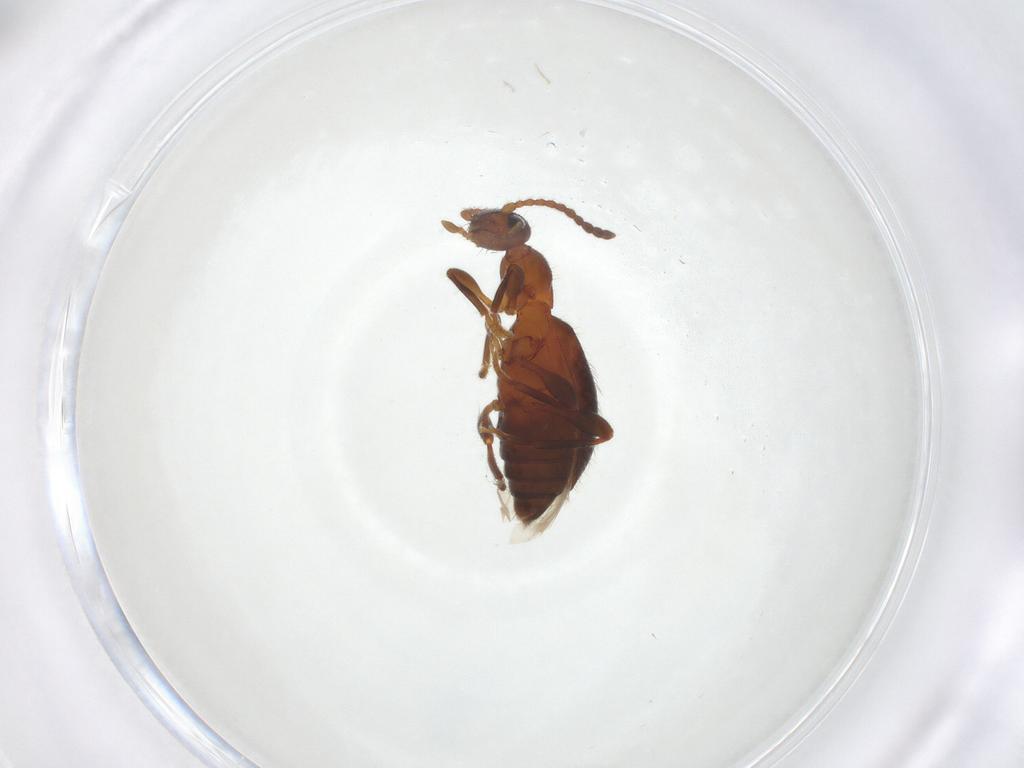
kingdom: Animalia
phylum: Arthropoda
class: Insecta
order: Coleoptera
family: Anthicidae
